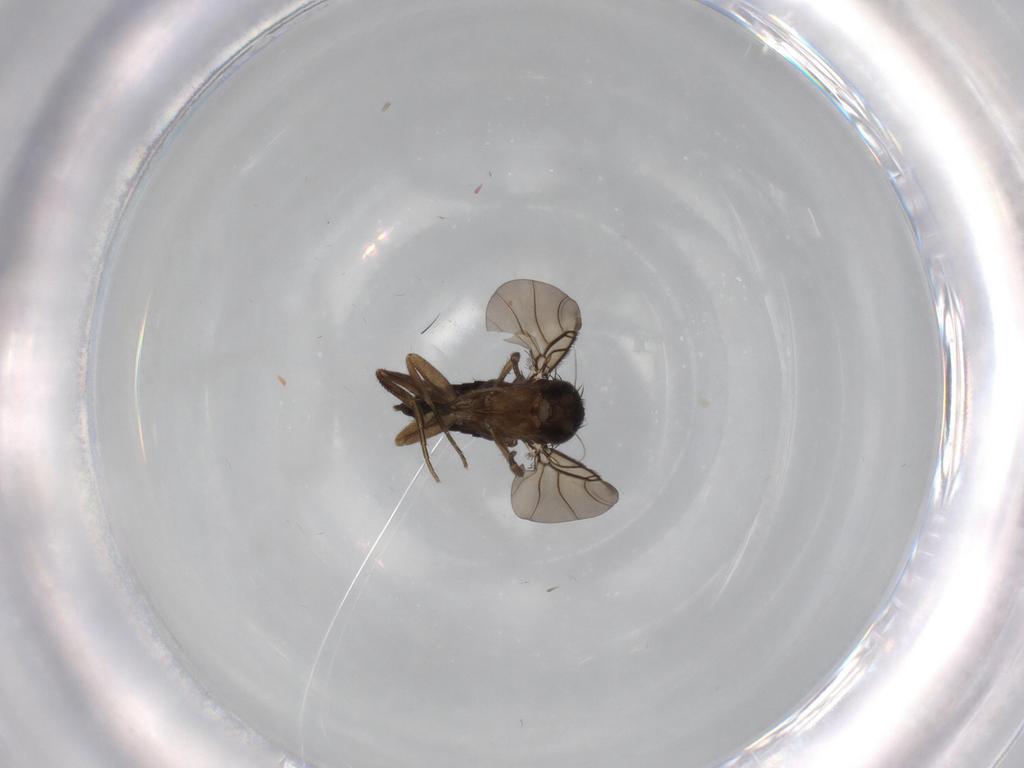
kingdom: Animalia
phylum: Arthropoda
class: Insecta
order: Diptera
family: Phoridae
